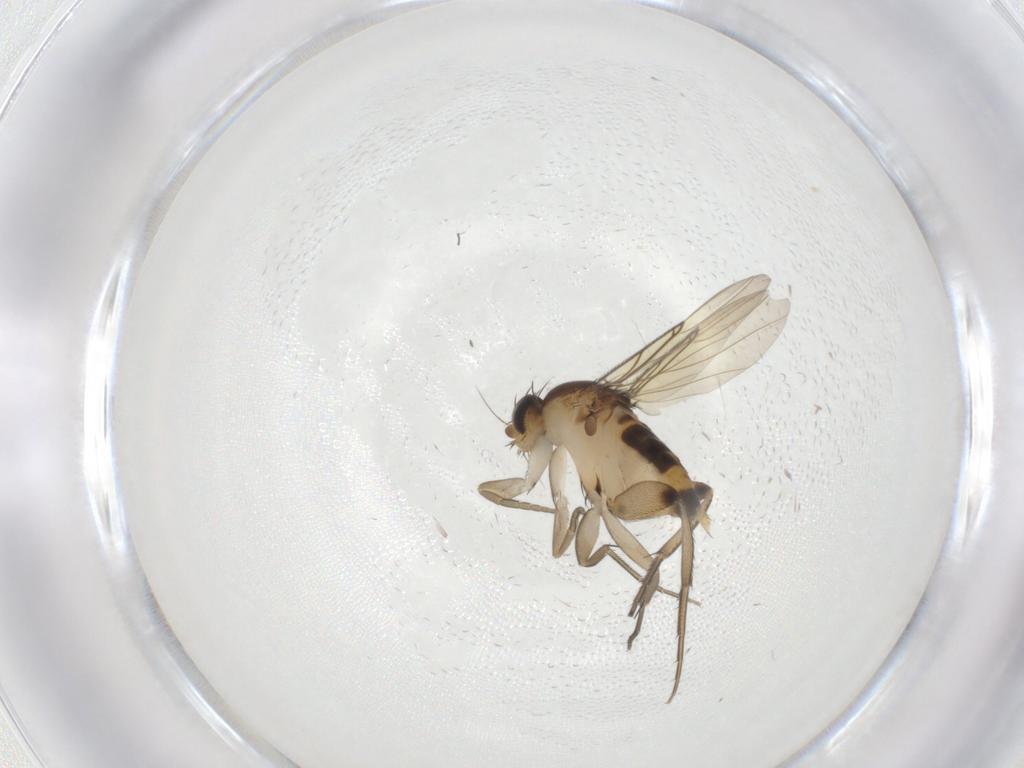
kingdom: Animalia
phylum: Arthropoda
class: Insecta
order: Diptera
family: Phoridae
